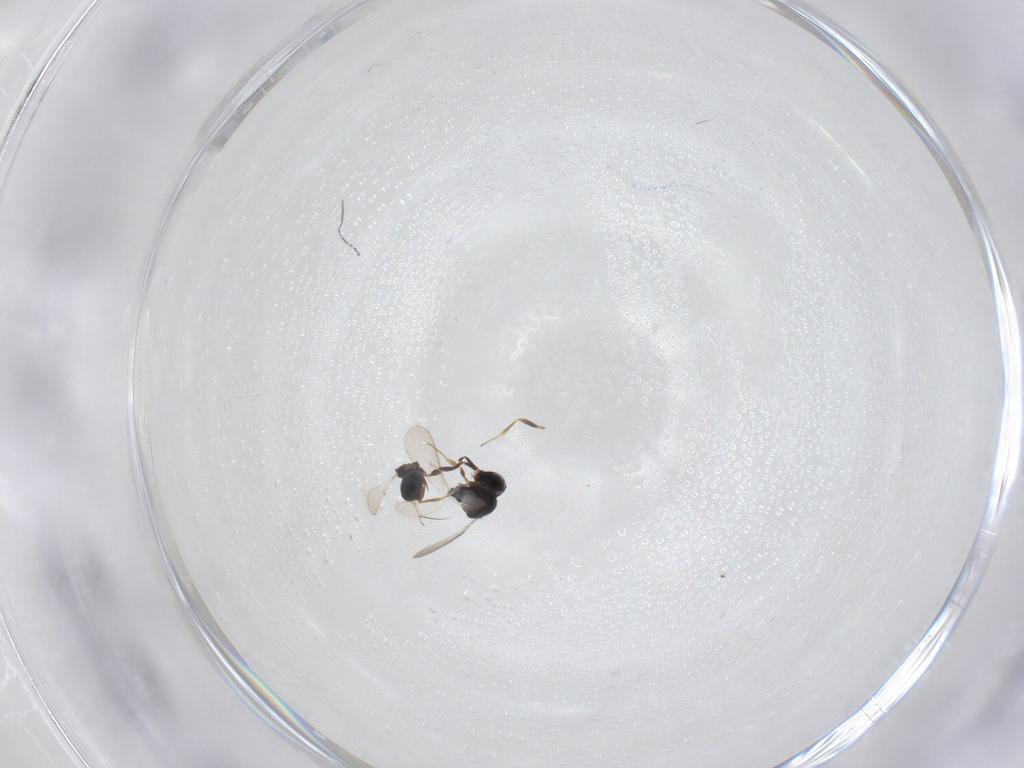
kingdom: Animalia
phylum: Arthropoda
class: Insecta
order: Hymenoptera
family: Scelionidae
